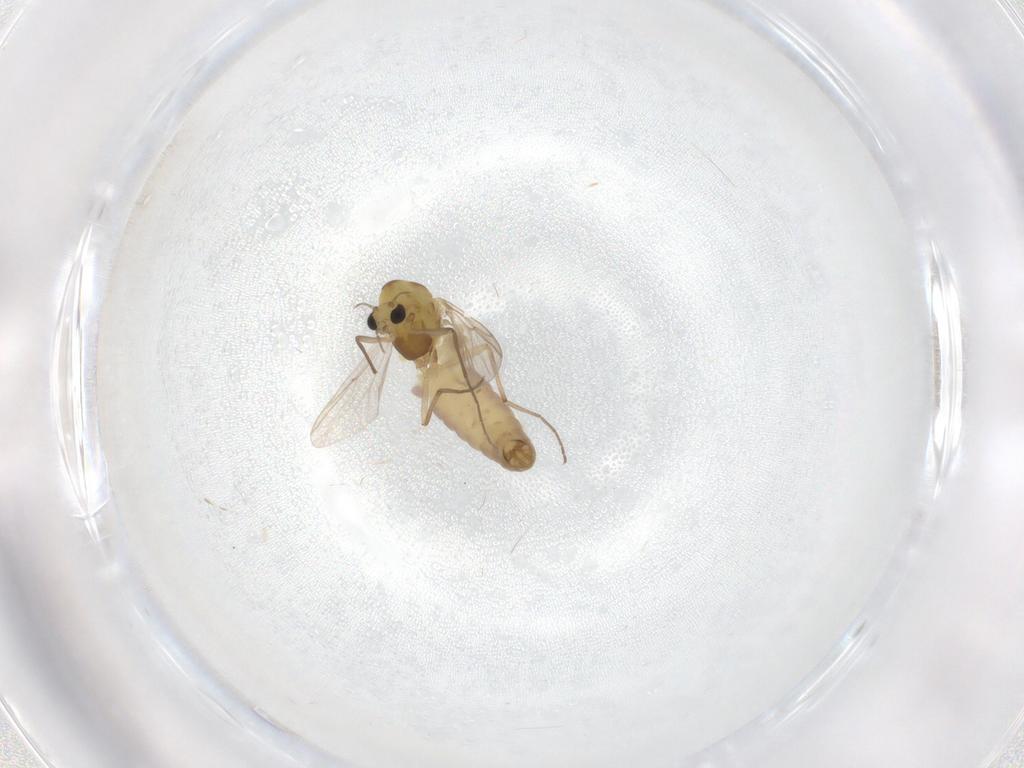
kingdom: Animalia
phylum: Arthropoda
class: Insecta
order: Diptera
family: Chironomidae
